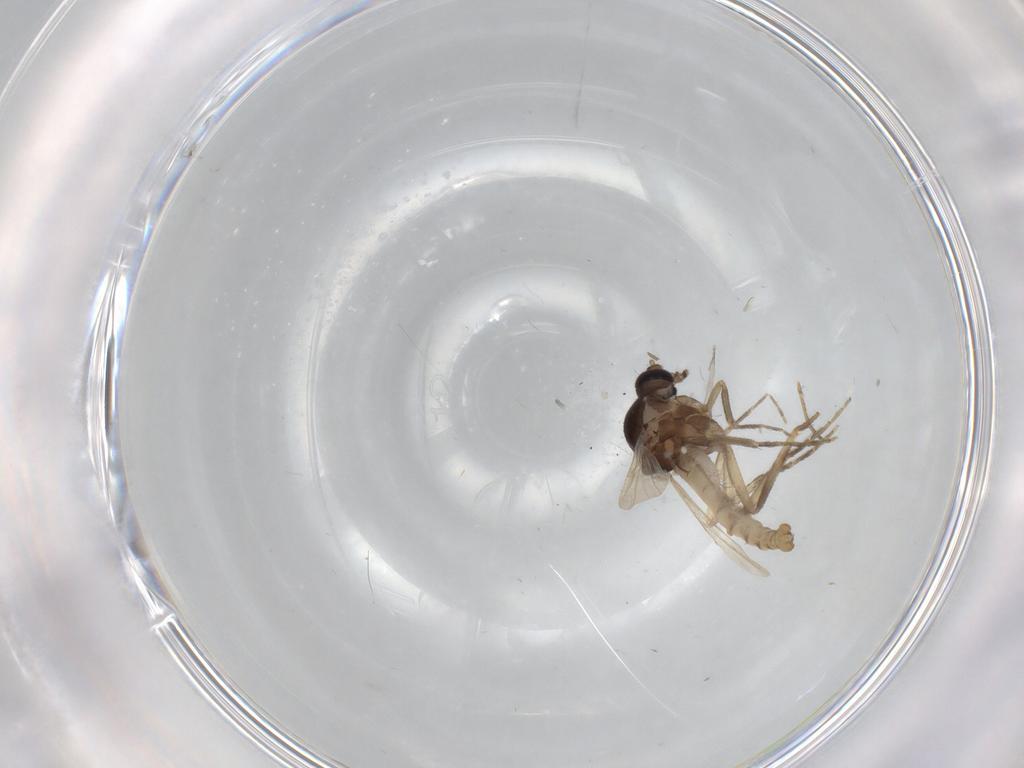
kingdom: Animalia
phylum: Arthropoda
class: Insecta
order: Diptera
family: Ceratopogonidae
